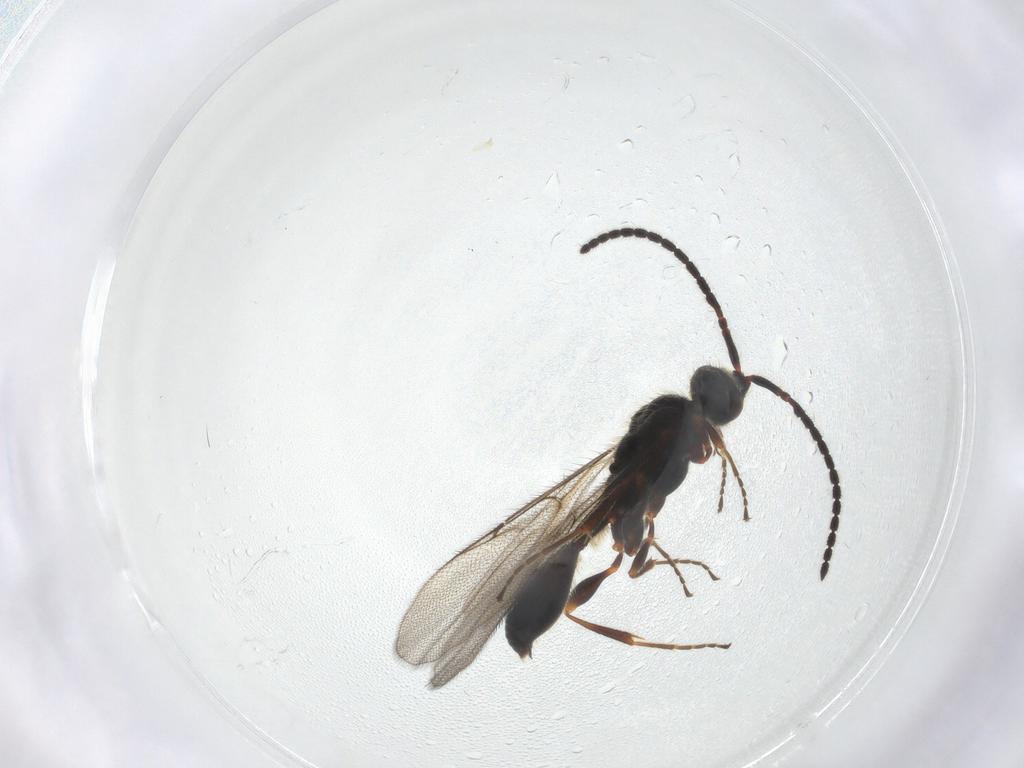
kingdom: Animalia
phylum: Arthropoda
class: Insecta
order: Hymenoptera
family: Diapriidae
